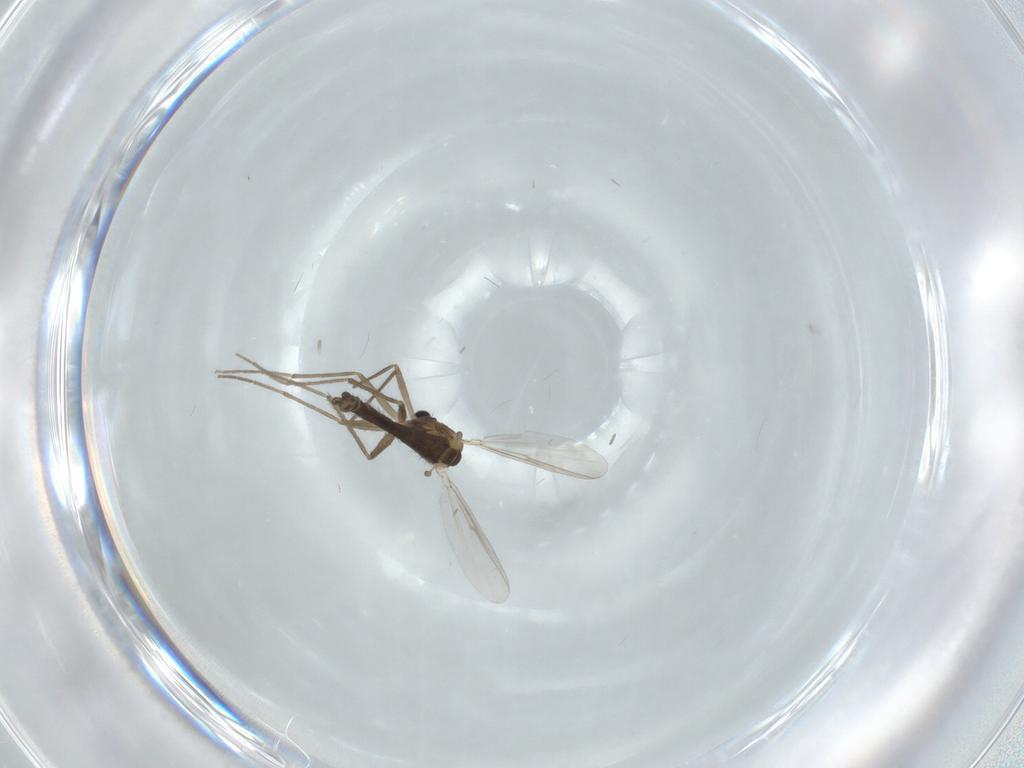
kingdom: Animalia
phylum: Arthropoda
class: Insecta
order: Diptera
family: Chironomidae
